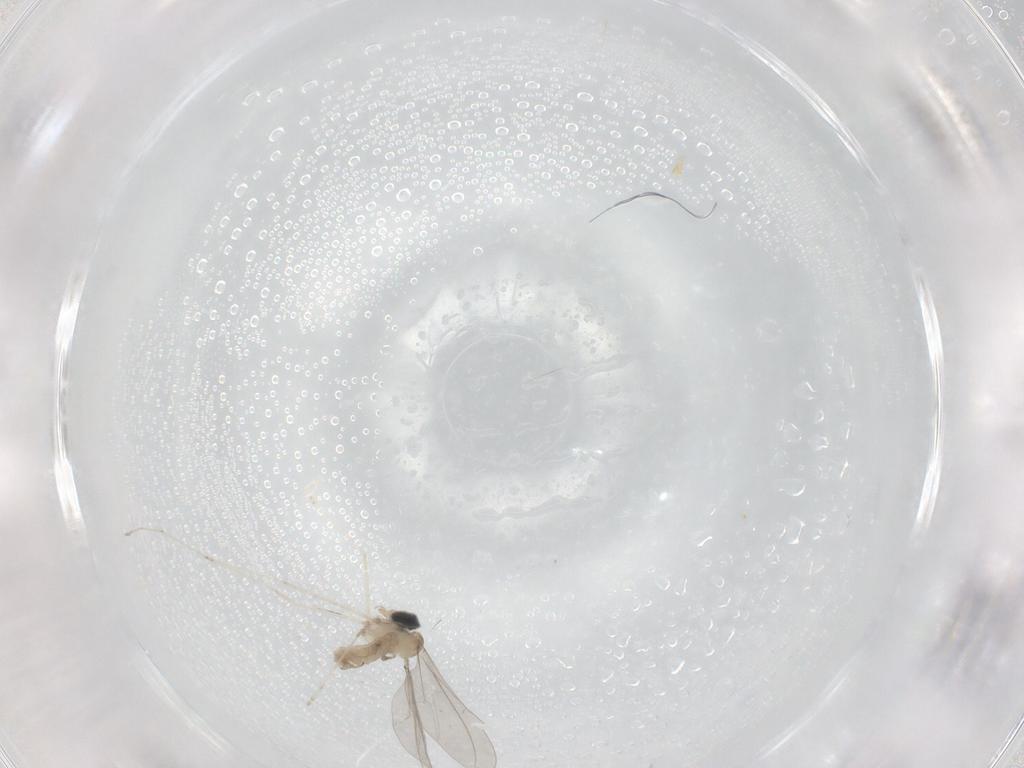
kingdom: Animalia
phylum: Arthropoda
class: Insecta
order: Diptera
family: Cecidomyiidae
